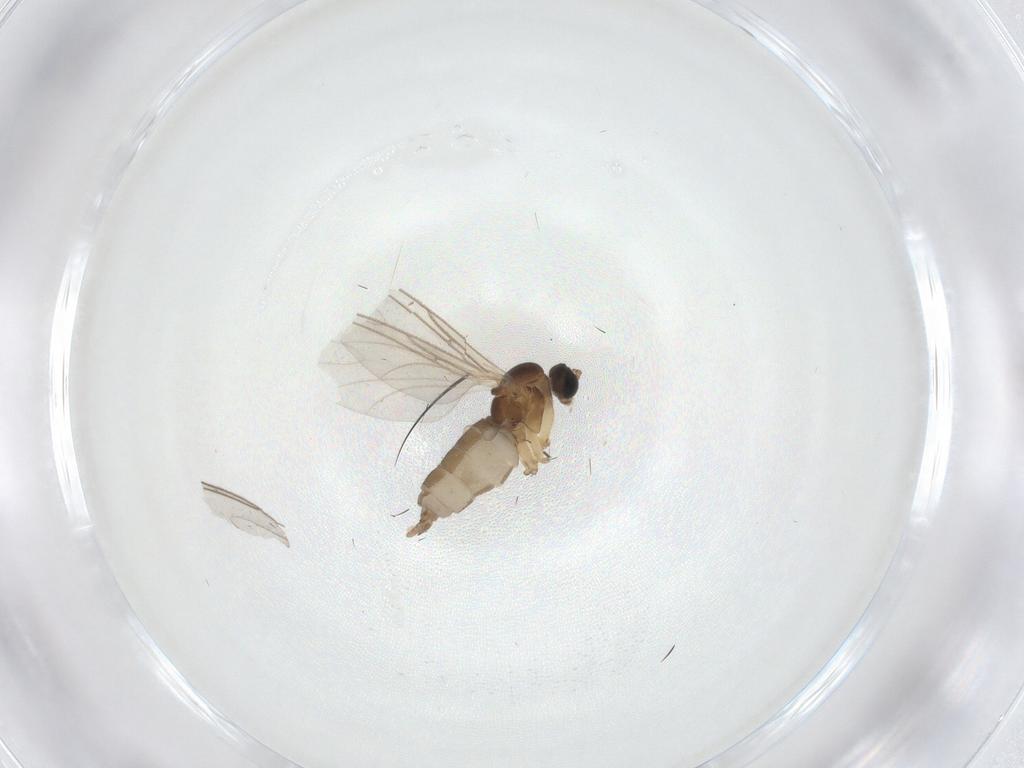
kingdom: Animalia
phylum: Arthropoda
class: Insecta
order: Diptera
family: Sciaridae
